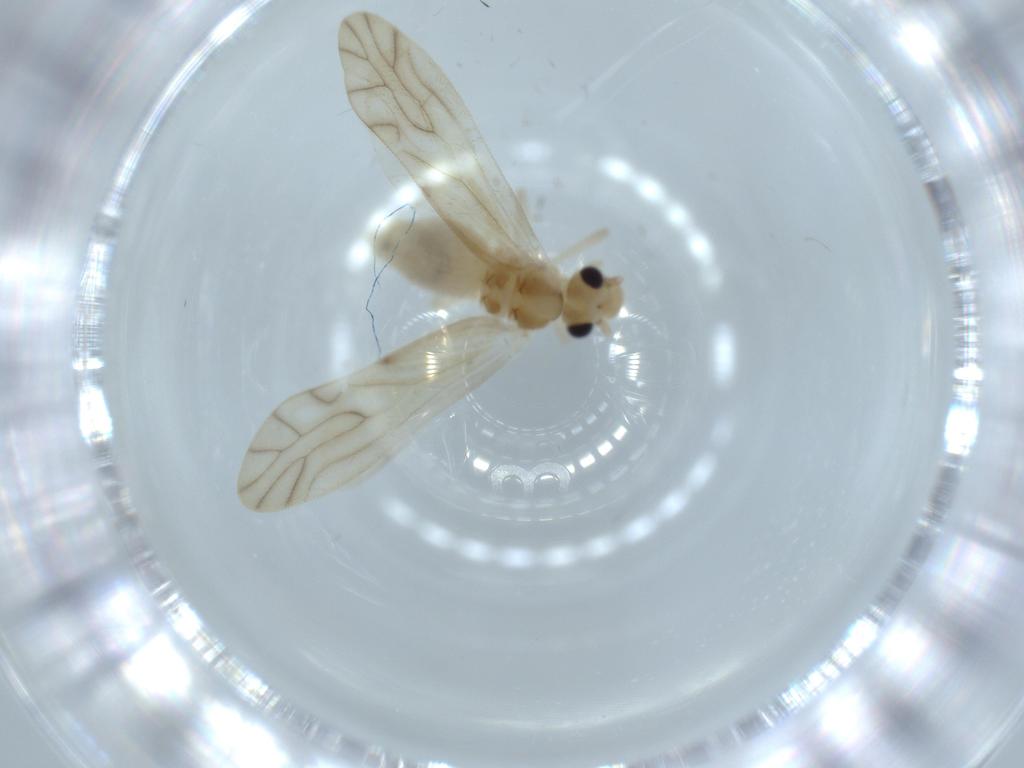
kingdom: Animalia
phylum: Arthropoda
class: Insecta
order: Psocodea
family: Caeciliusidae
